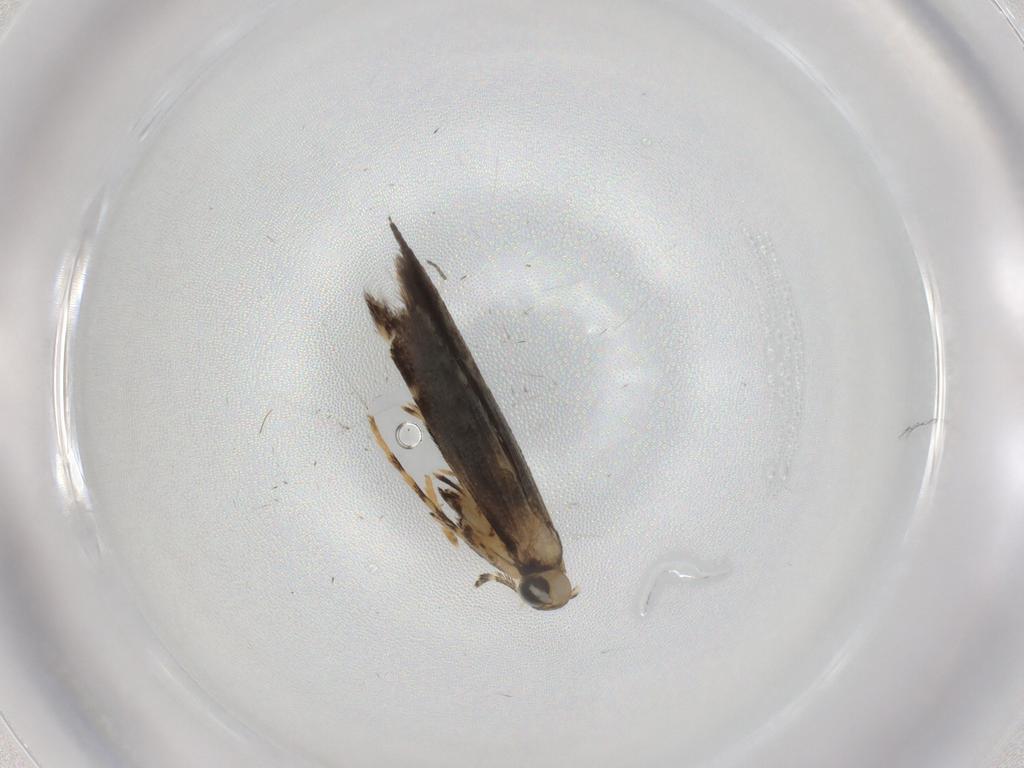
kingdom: Animalia
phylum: Arthropoda
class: Insecta
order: Lepidoptera
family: Gracillariidae
